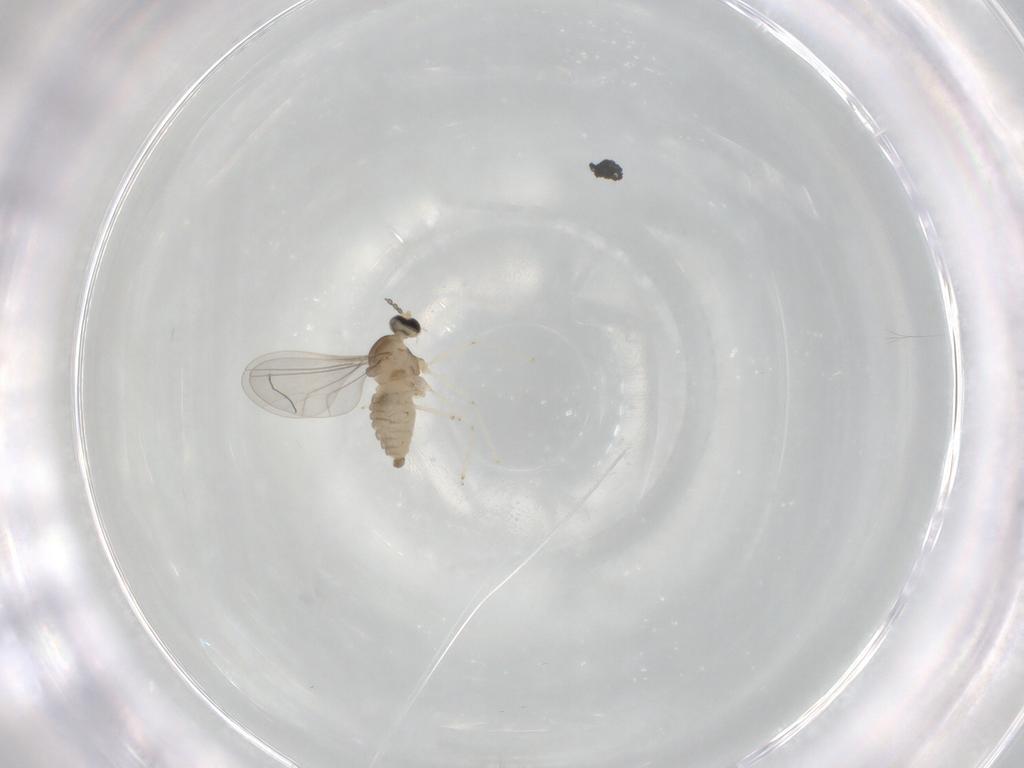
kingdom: Animalia
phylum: Arthropoda
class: Insecta
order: Diptera
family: Cecidomyiidae
